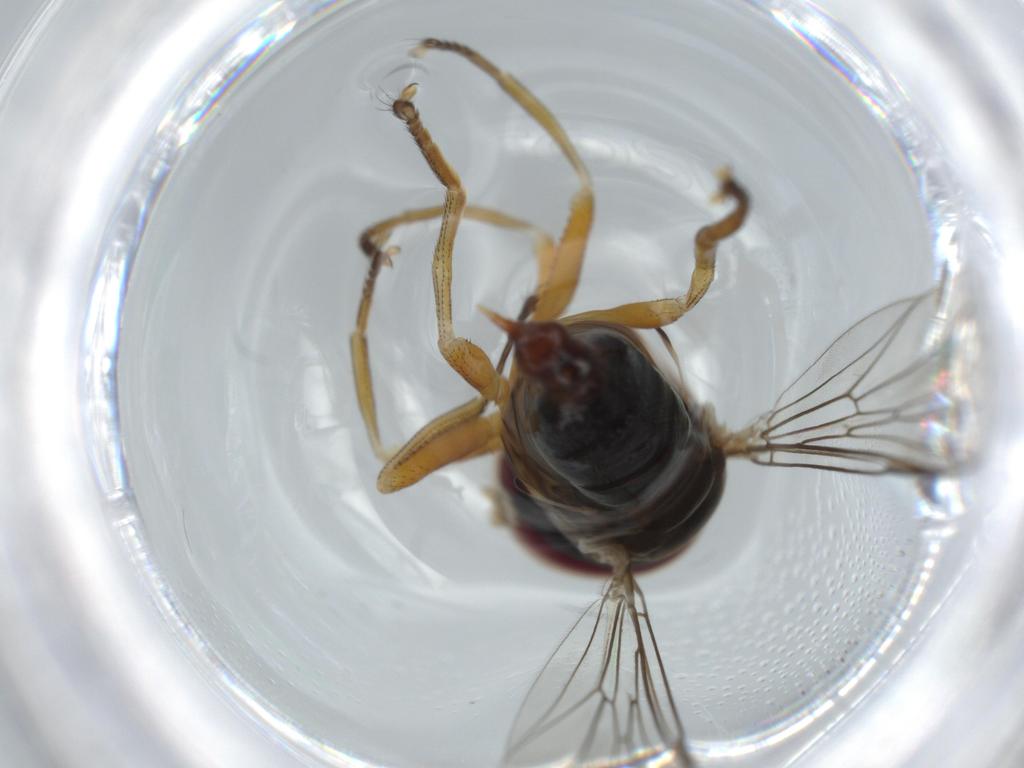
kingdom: Animalia
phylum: Arthropoda
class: Insecta
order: Diptera
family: Pipunculidae
